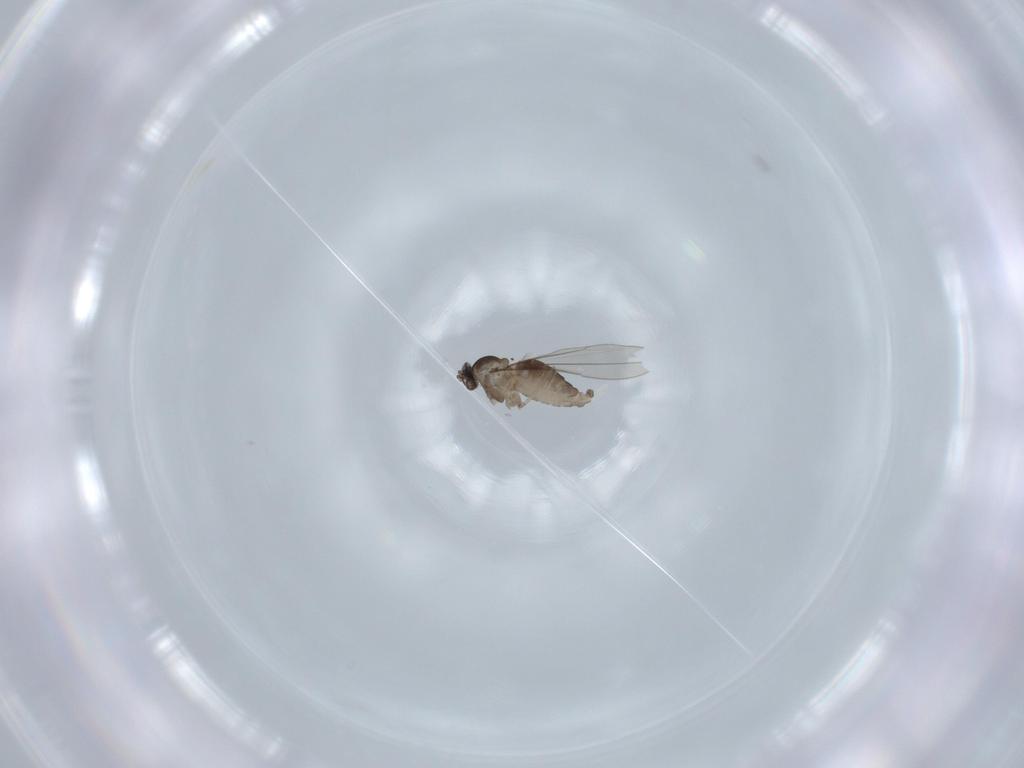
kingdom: Animalia
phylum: Arthropoda
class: Insecta
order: Diptera
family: Cecidomyiidae
